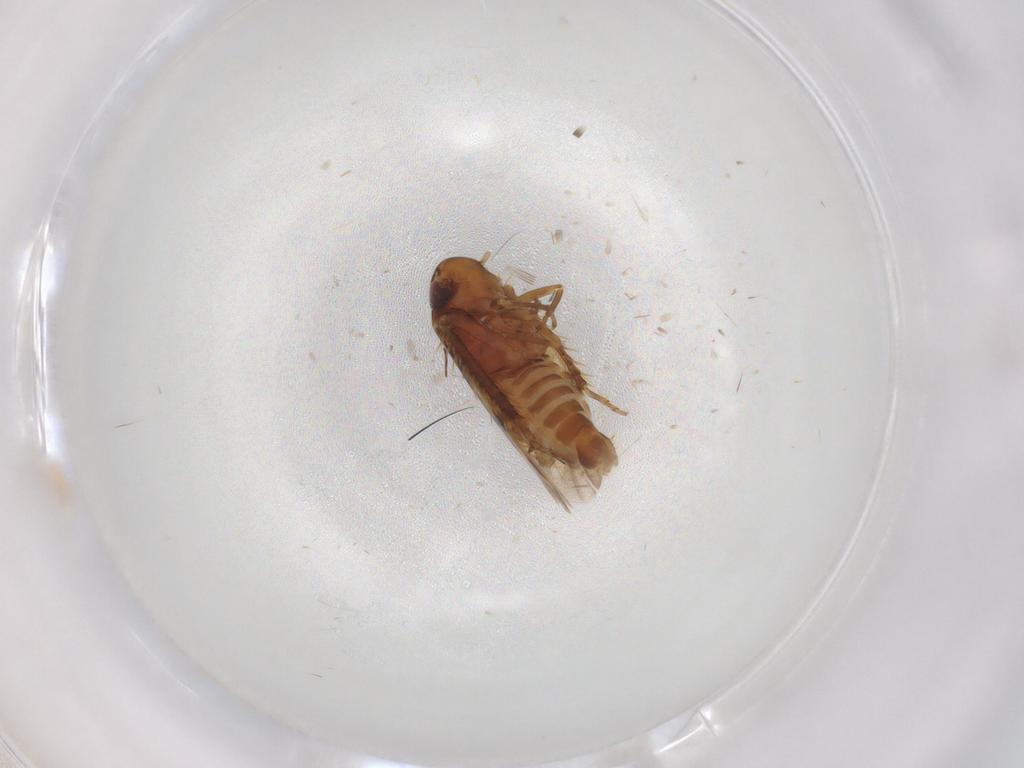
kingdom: Animalia
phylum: Arthropoda
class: Insecta
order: Hemiptera
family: Cicadellidae
